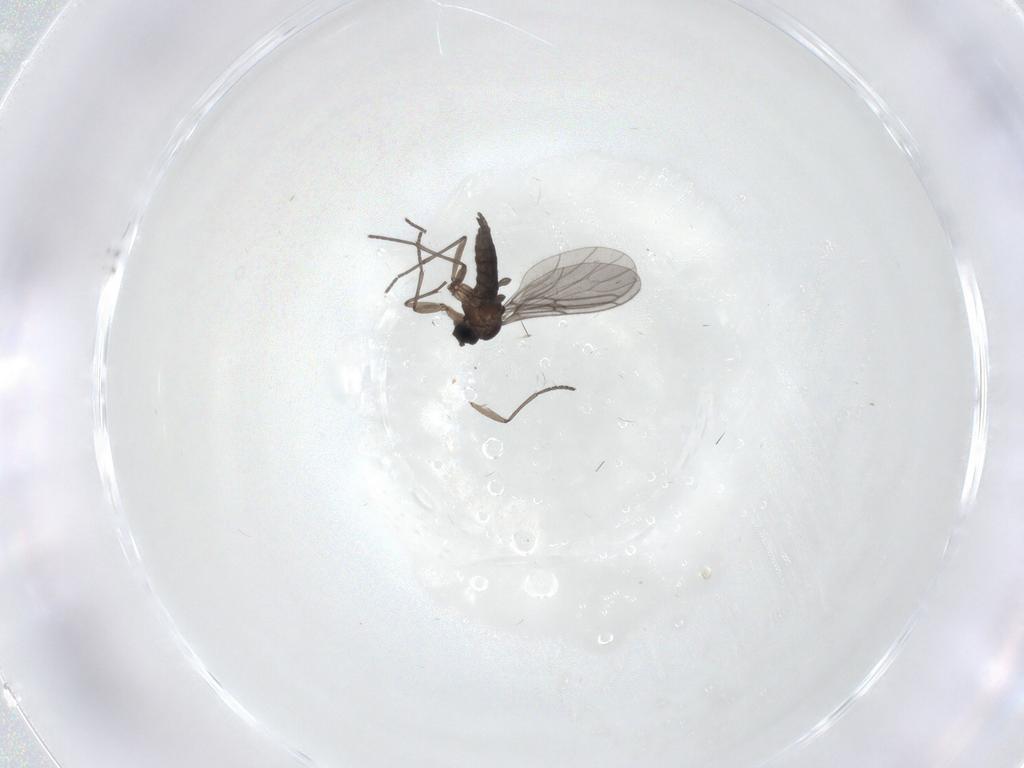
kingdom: Animalia
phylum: Arthropoda
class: Insecta
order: Diptera
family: Sciaridae
